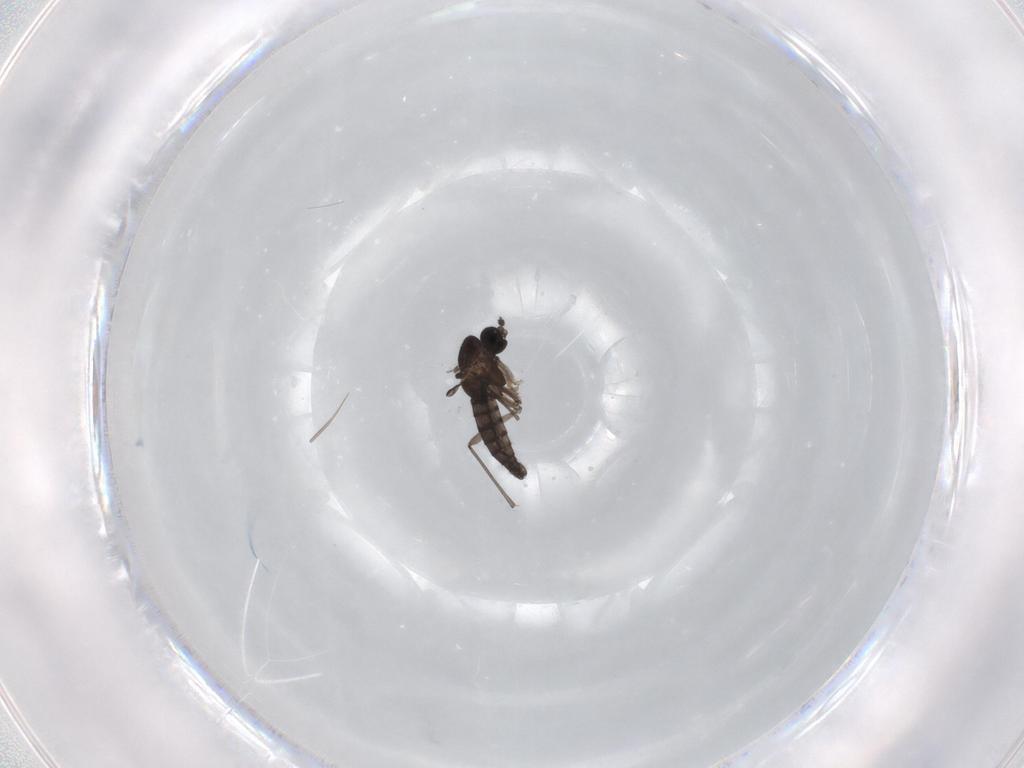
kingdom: Animalia
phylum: Arthropoda
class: Insecta
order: Diptera
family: Sciaridae
